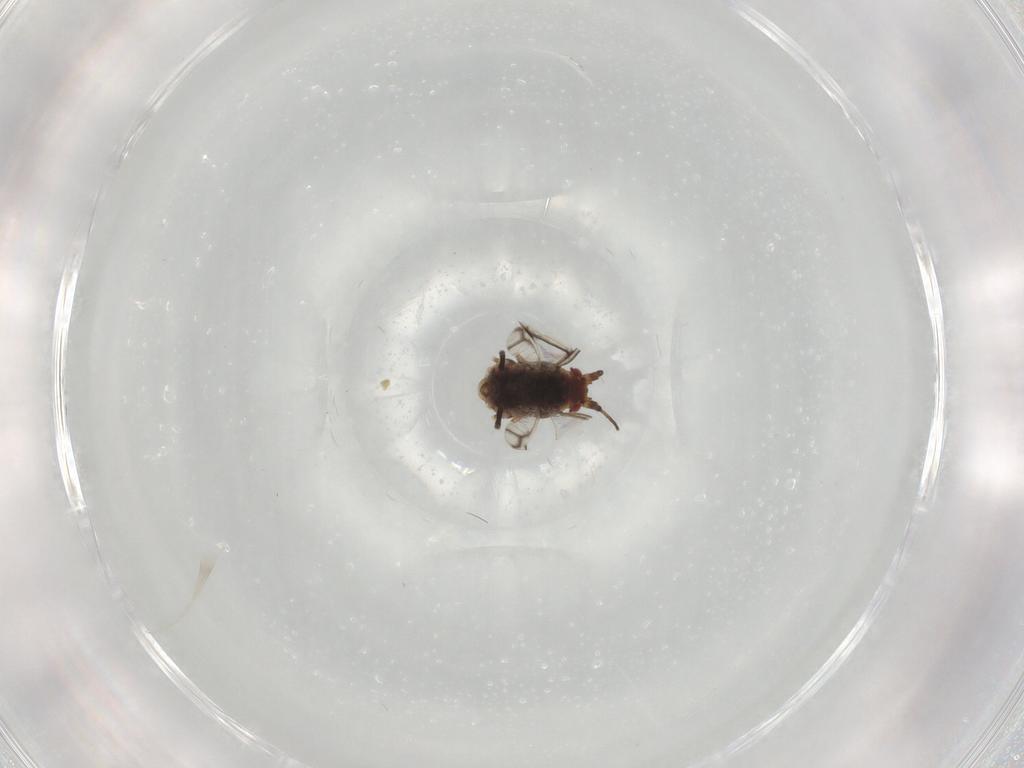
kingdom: Animalia
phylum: Arthropoda
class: Insecta
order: Hemiptera
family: Aphididae
